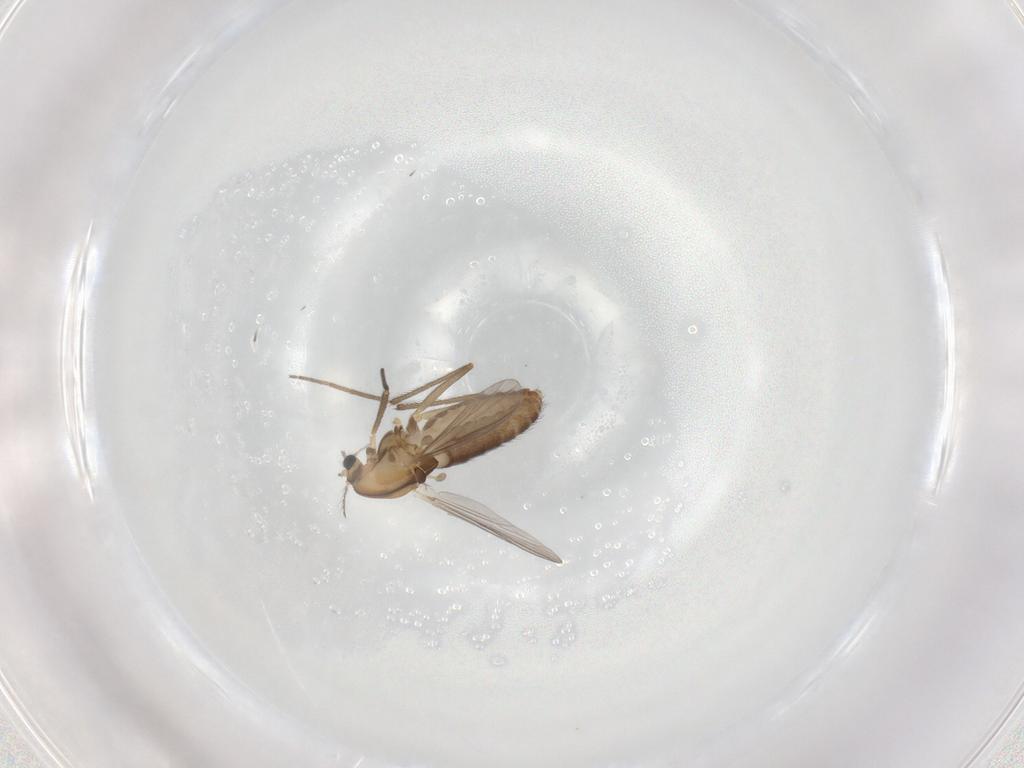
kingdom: Animalia
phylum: Arthropoda
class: Insecta
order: Diptera
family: Chironomidae
